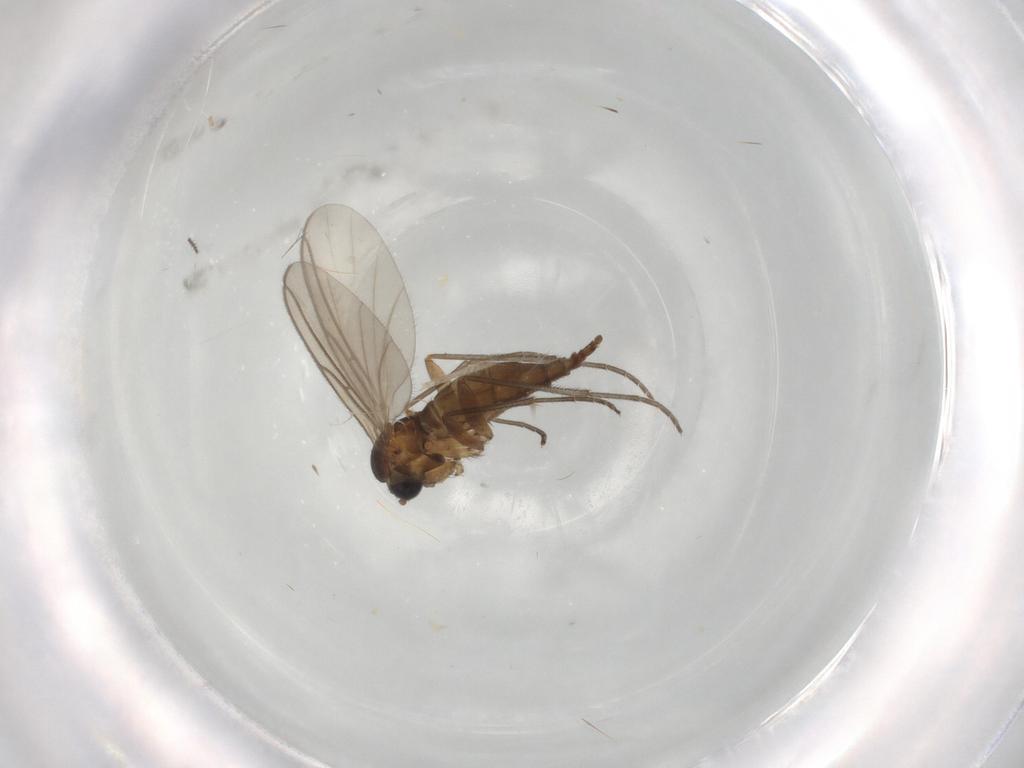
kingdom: Animalia
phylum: Arthropoda
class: Insecta
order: Diptera
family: Sciaridae
